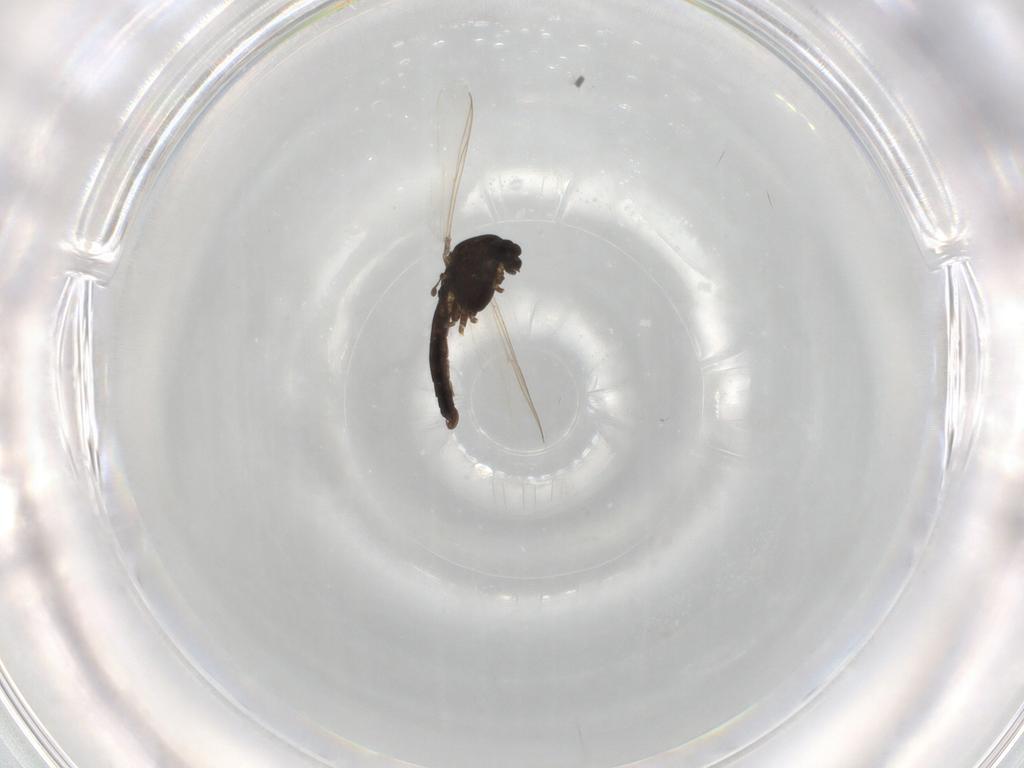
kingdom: Animalia
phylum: Arthropoda
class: Insecta
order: Diptera
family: Chironomidae
